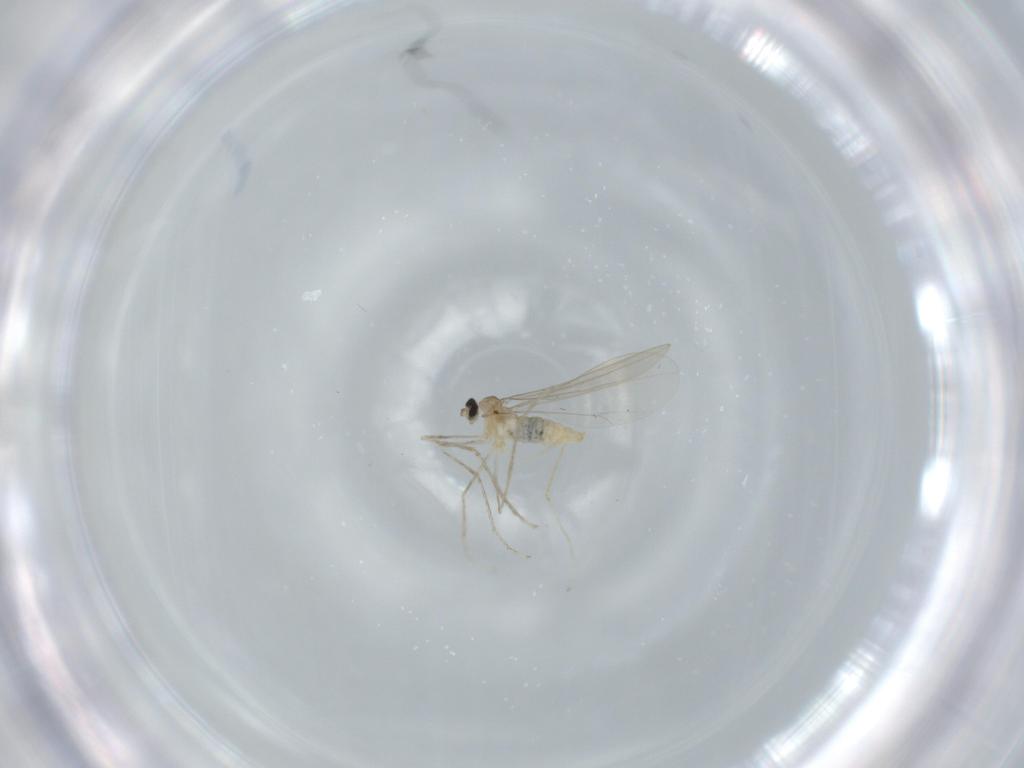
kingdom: Animalia
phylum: Arthropoda
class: Insecta
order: Diptera
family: Cecidomyiidae
